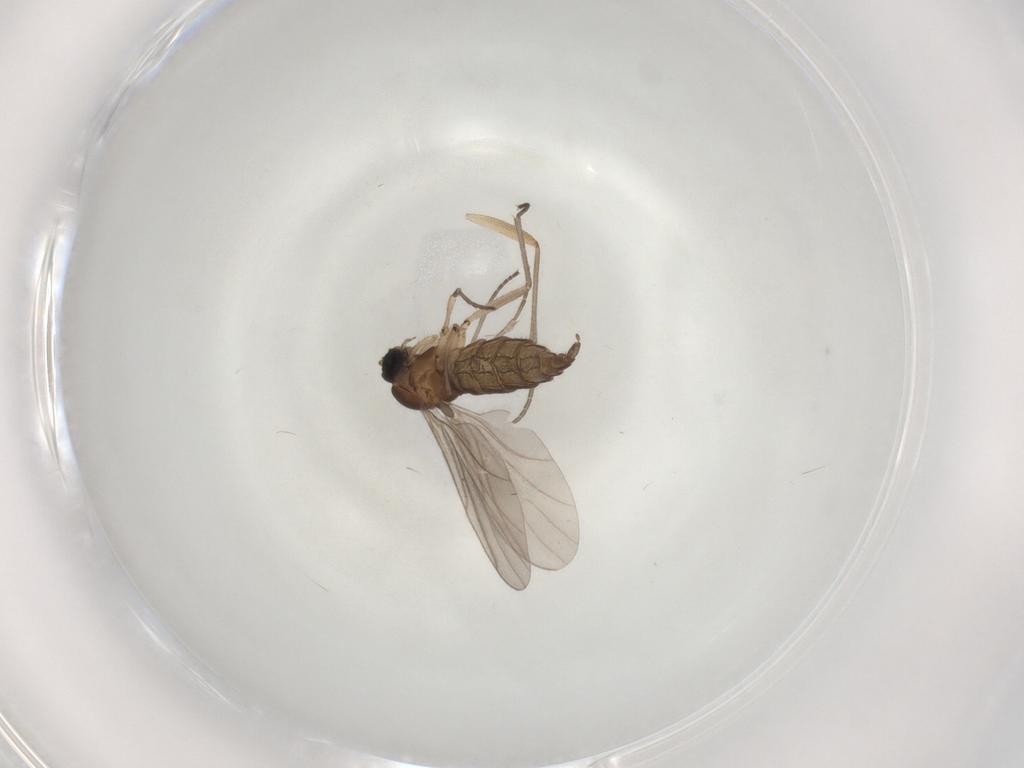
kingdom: Animalia
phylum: Arthropoda
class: Insecta
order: Diptera
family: Sciaridae
